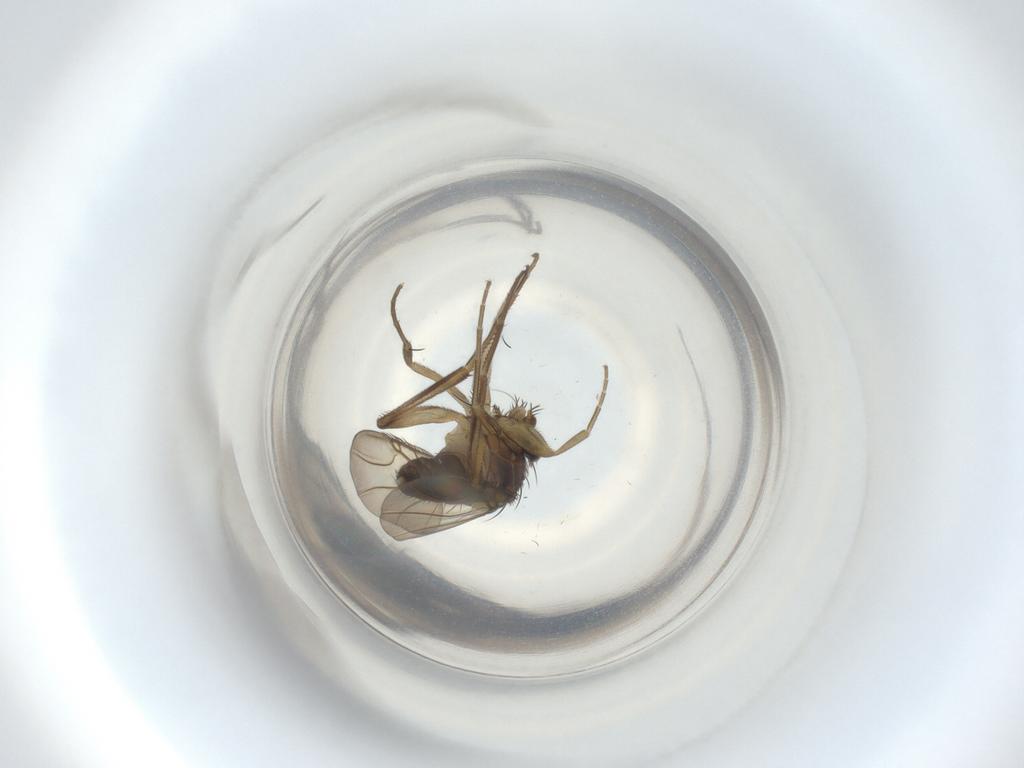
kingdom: Animalia
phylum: Arthropoda
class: Insecta
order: Diptera
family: Phoridae
